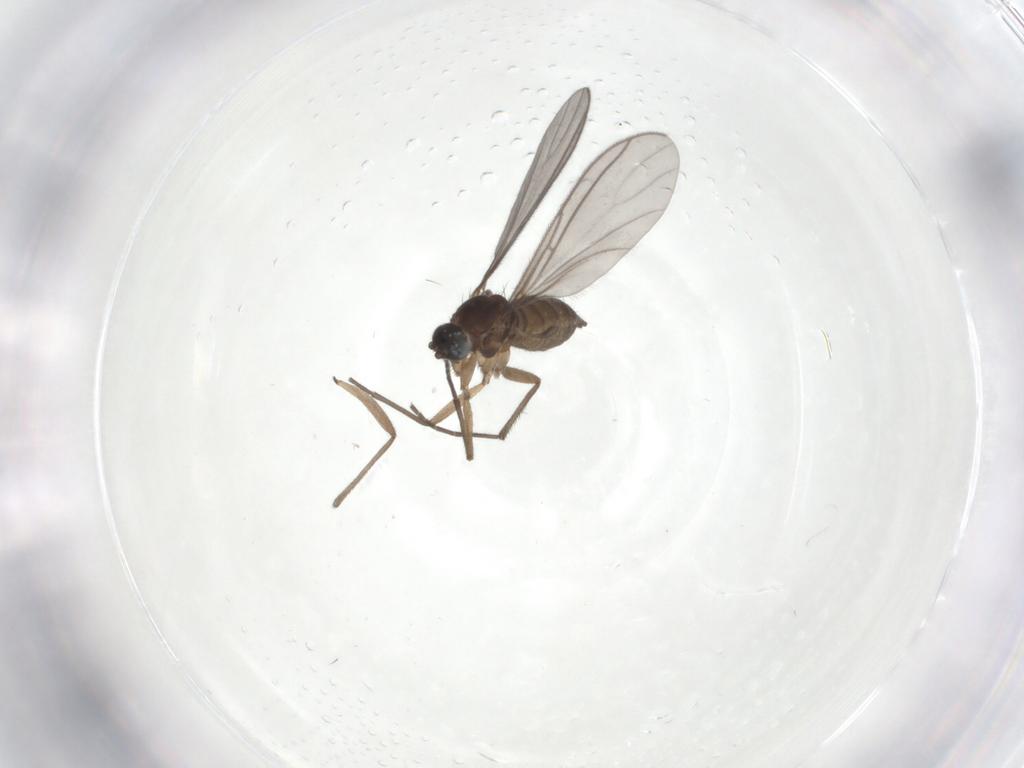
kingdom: Animalia
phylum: Arthropoda
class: Insecta
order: Diptera
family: Sciaridae
